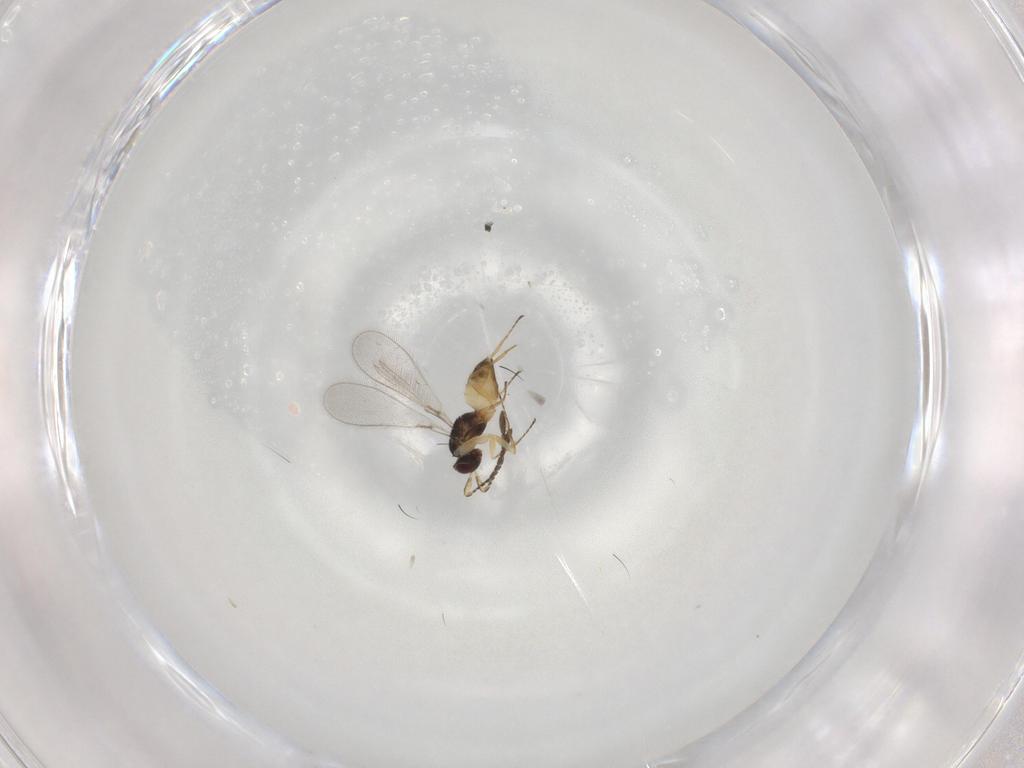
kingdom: Animalia
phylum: Arthropoda
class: Insecta
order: Hymenoptera
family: Mymaridae
